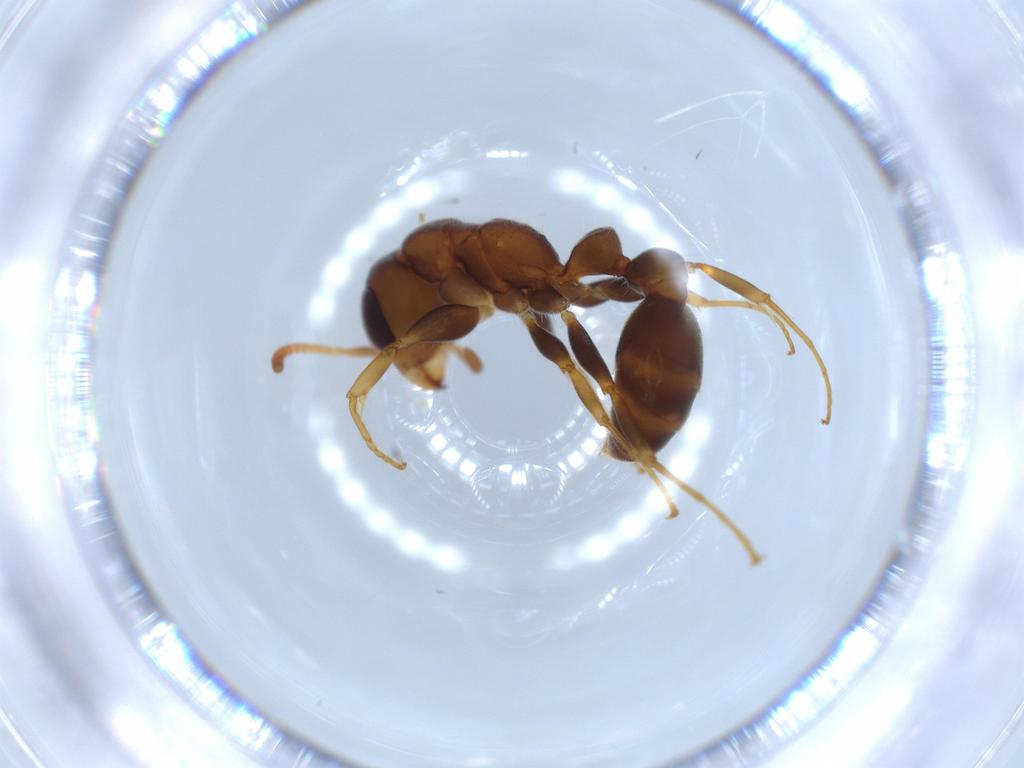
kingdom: Animalia
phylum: Arthropoda
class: Insecta
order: Hymenoptera
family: Formicidae
